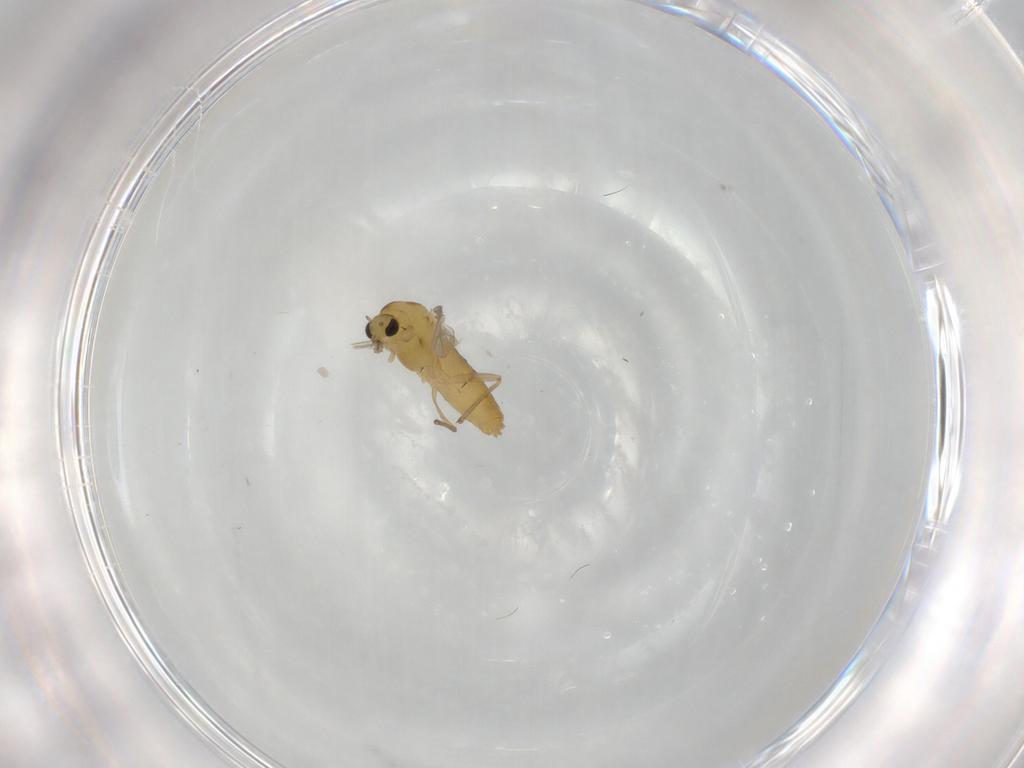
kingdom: Animalia
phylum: Arthropoda
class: Insecta
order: Diptera
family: Chironomidae
